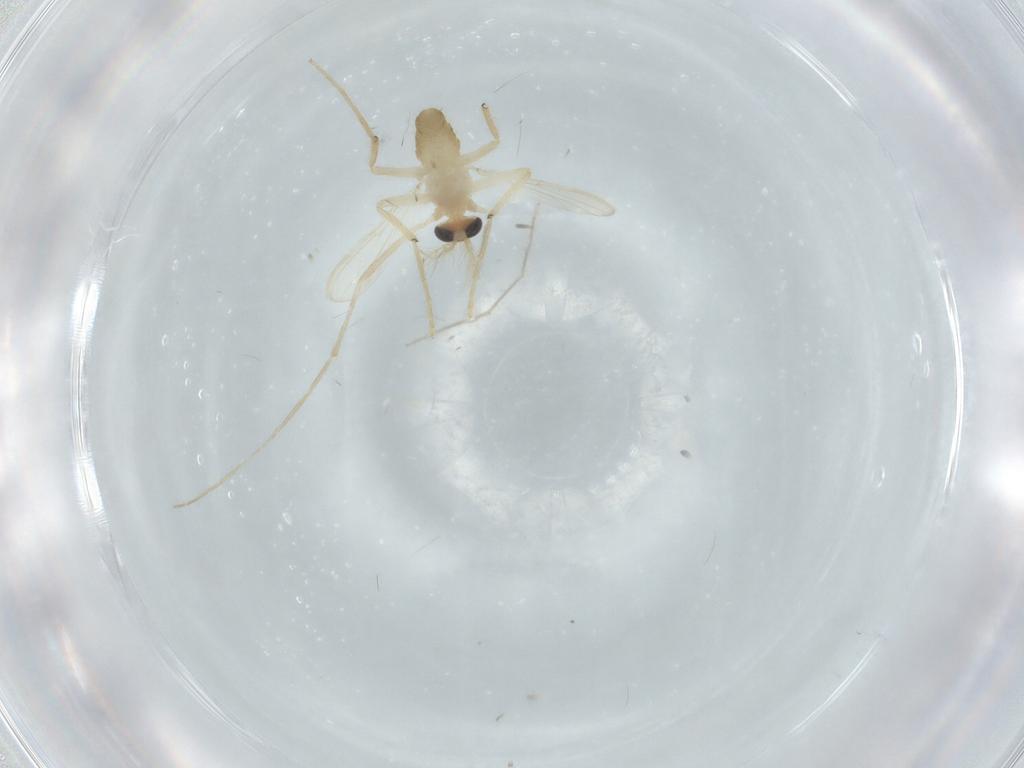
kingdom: Animalia
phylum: Arthropoda
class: Insecta
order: Diptera
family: Chironomidae
